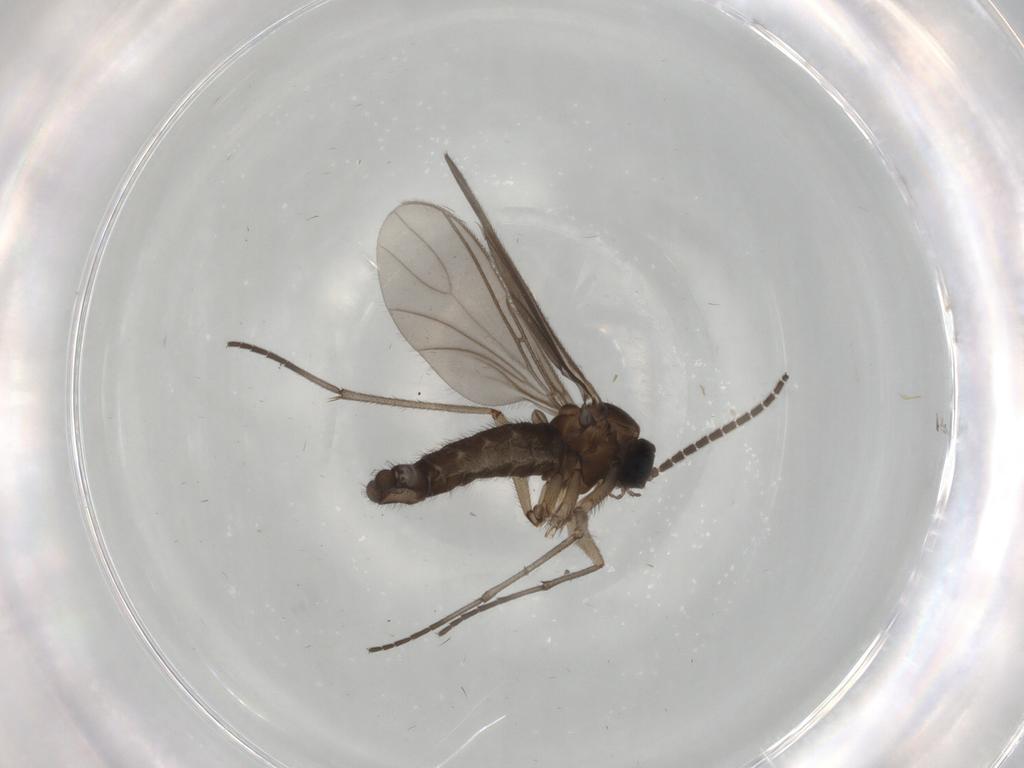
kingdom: Animalia
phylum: Arthropoda
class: Insecta
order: Diptera
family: Sciaridae
